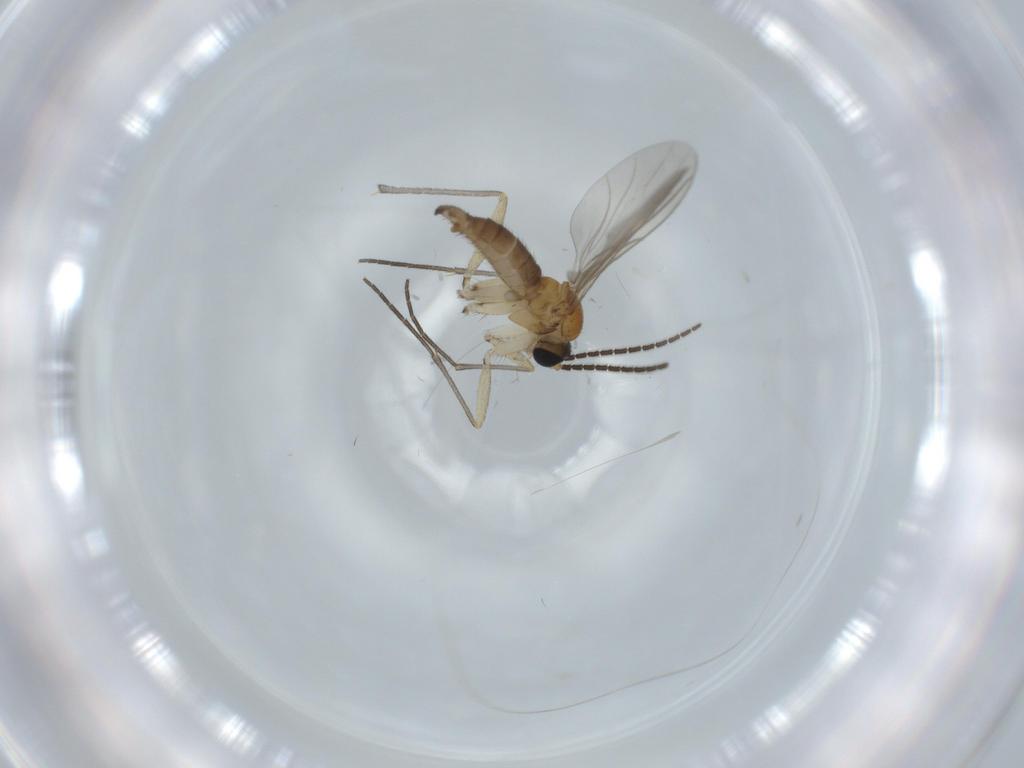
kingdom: Animalia
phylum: Arthropoda
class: Insecta
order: Diptera
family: Sciaridae
